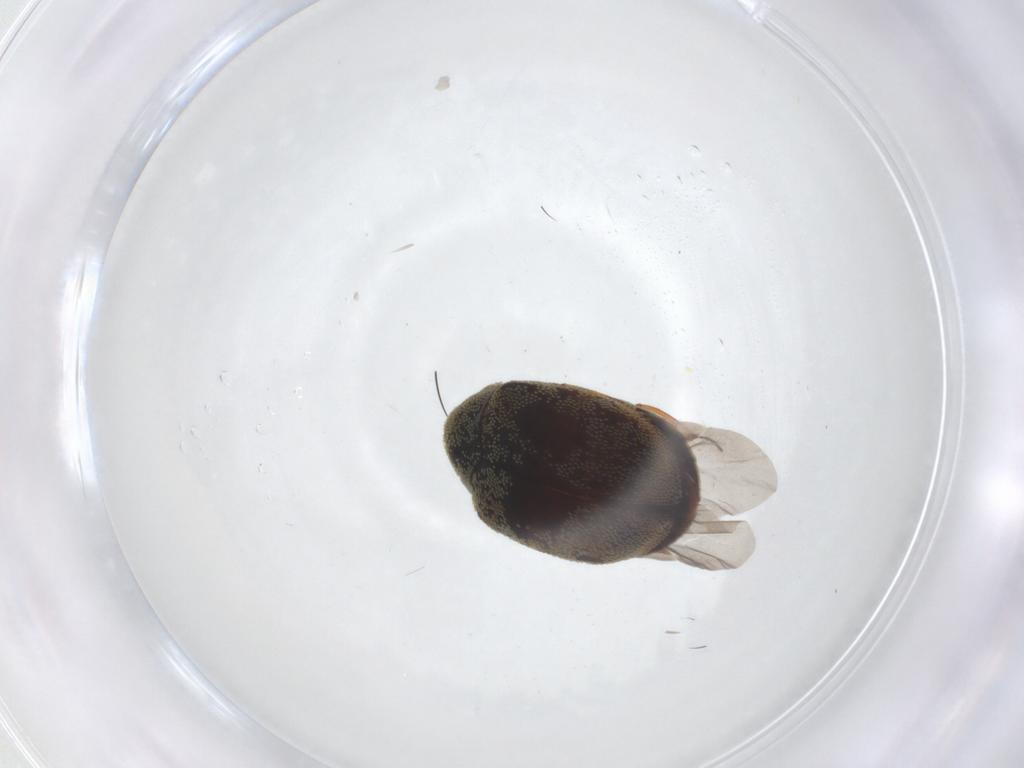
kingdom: Animalia
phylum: Arthropoda
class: Insecta
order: Coleoptera
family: Dermestidae
